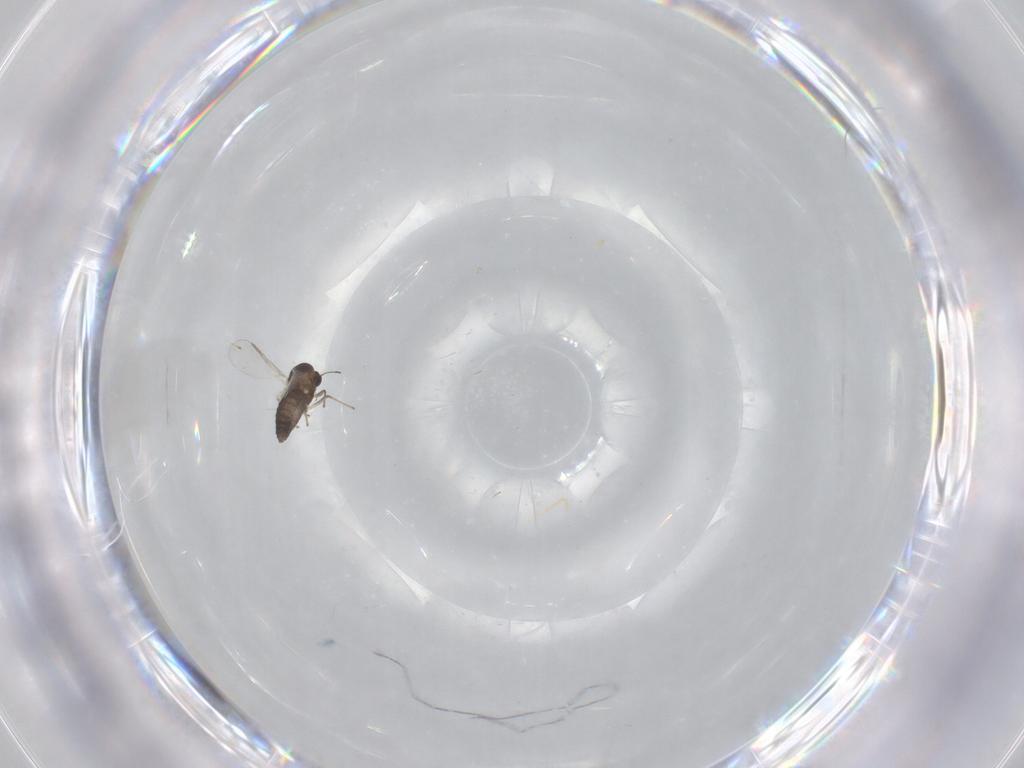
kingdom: Animalia
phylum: Arthropoda
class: Insecta
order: Diptera
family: Chironomidae
